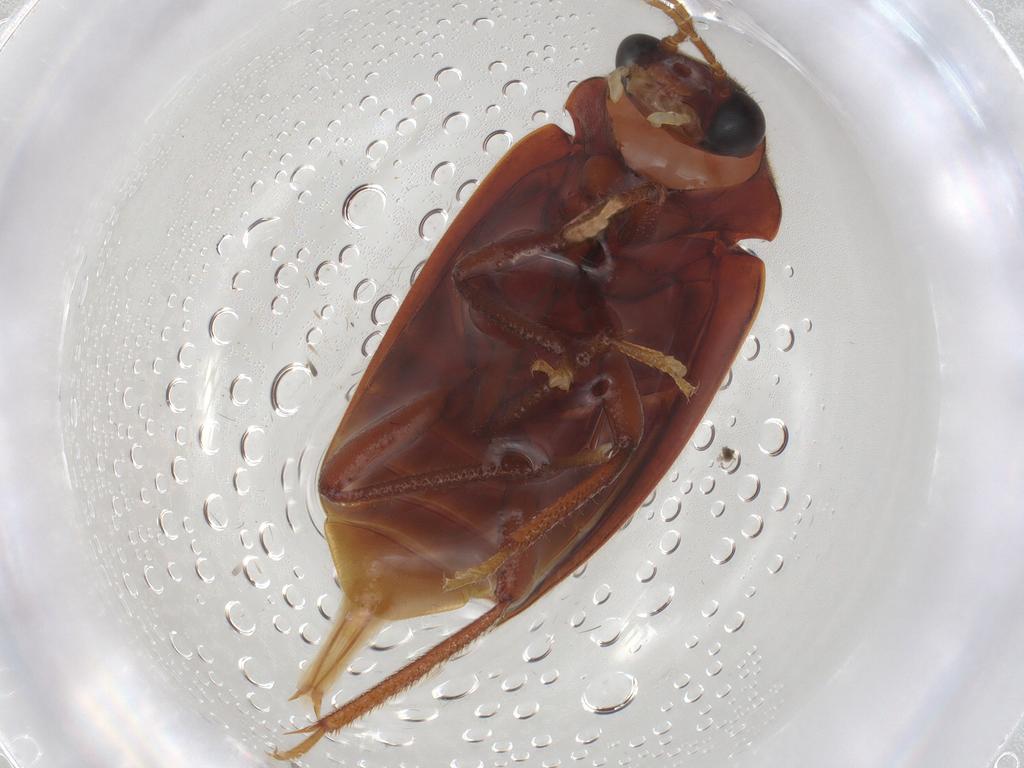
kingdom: Animalia
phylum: Arthropoda
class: Insecta
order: Coleoptera
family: Ptilodactylidae
